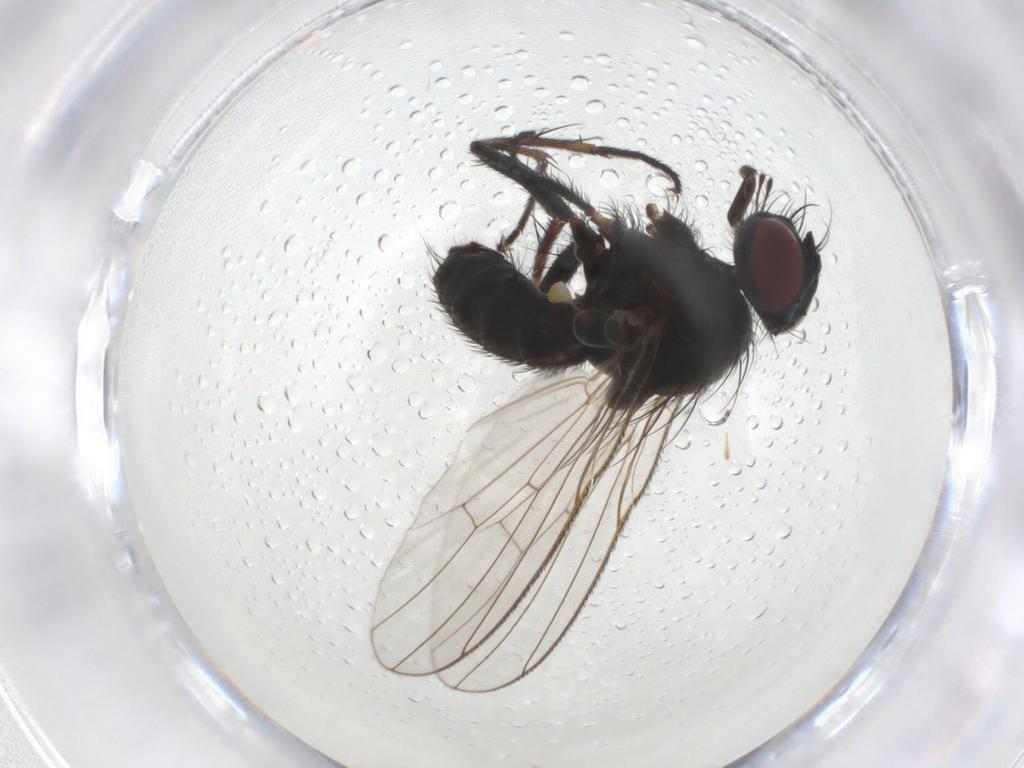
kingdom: Animalia
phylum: Arthropoda
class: Insecta
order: Diptera
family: Muscidae
